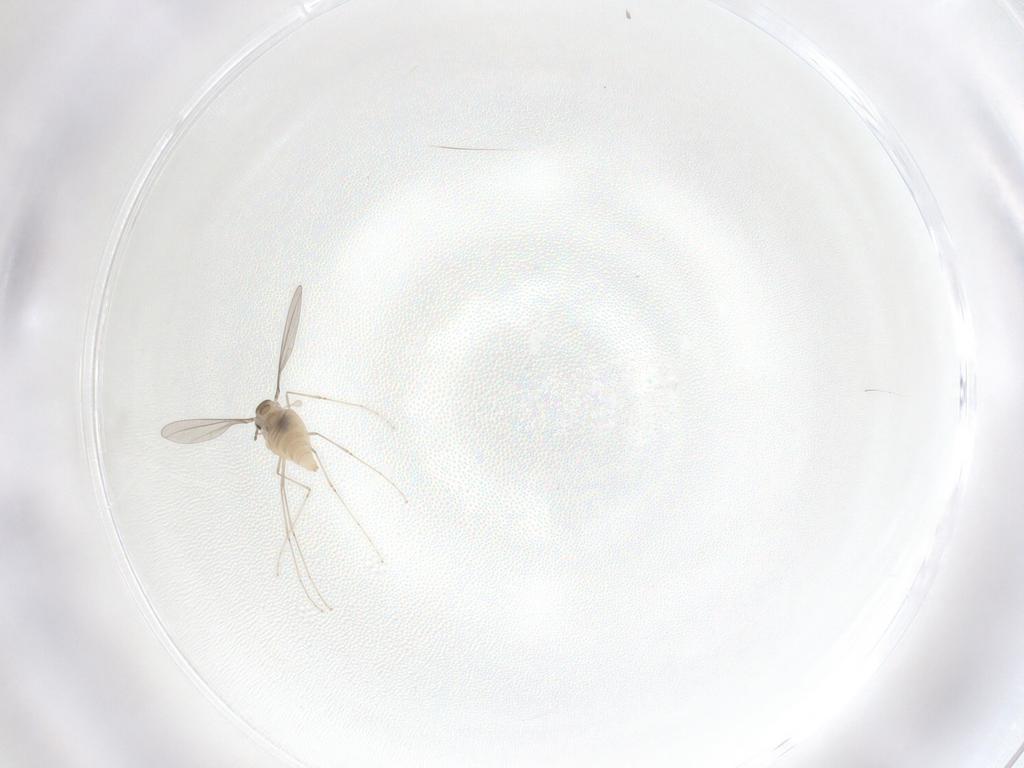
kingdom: Animalia
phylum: Arthropoda
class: Insecta
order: Diptera
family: Cecidomyiidae
